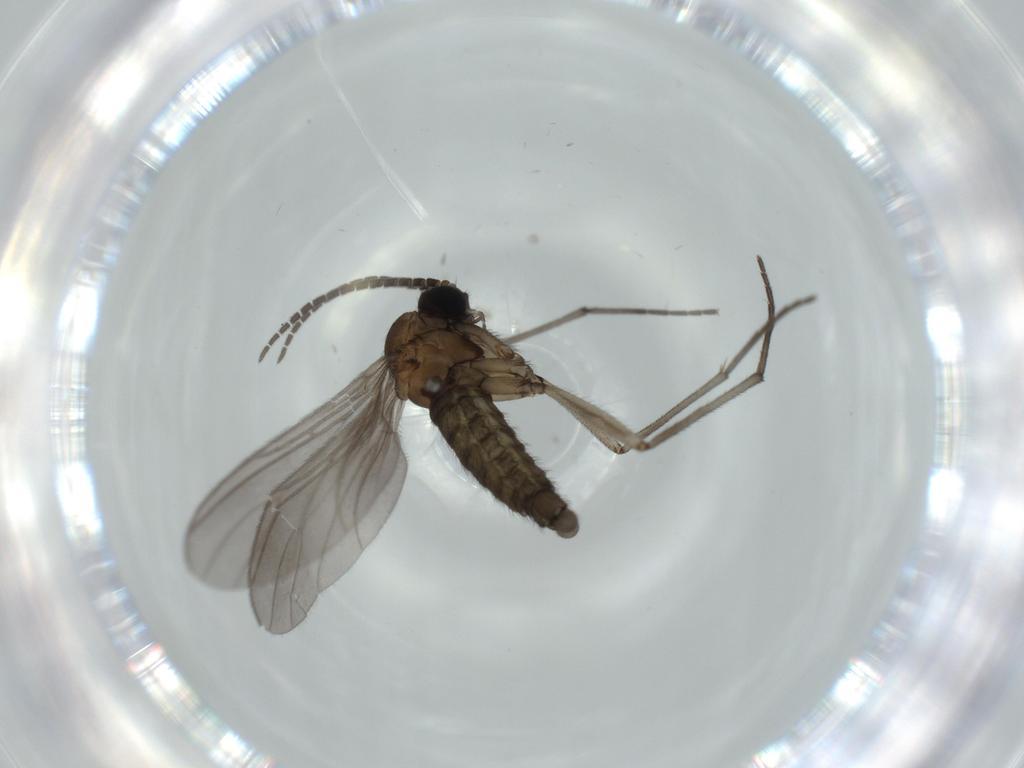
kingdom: Animalia
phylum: Arthropoda
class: Insecta
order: Diptera
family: Sciaridae
